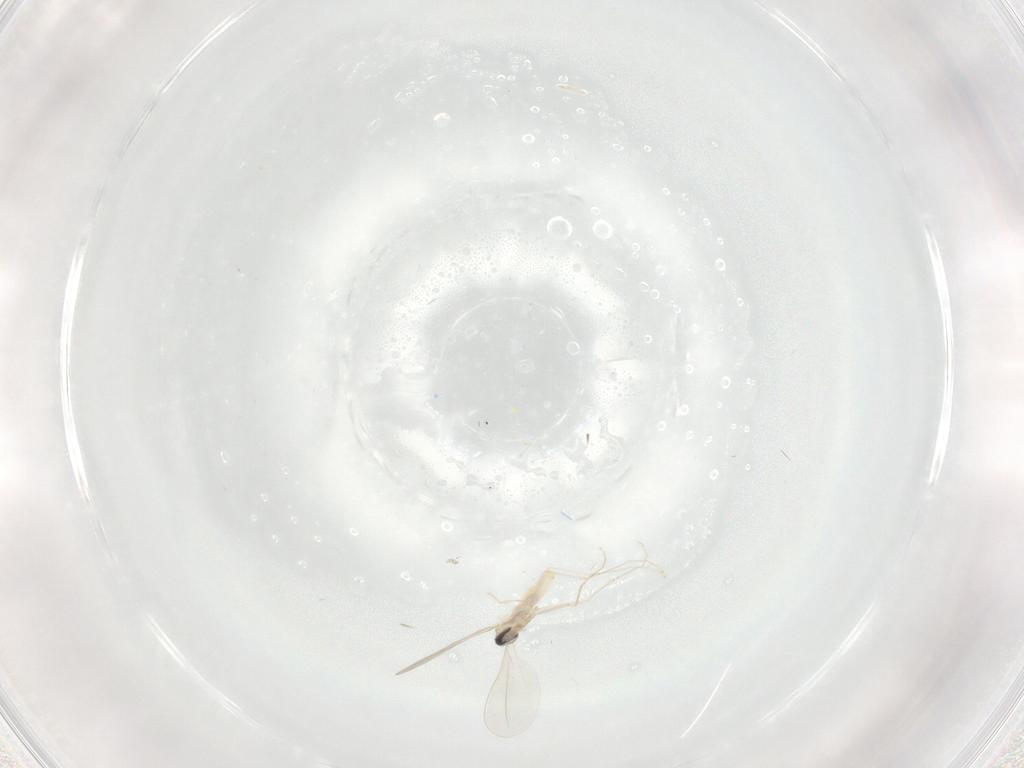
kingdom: Animalia
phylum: Arthropoda
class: Insecta
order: Diptera
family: Cecidomyiidae
